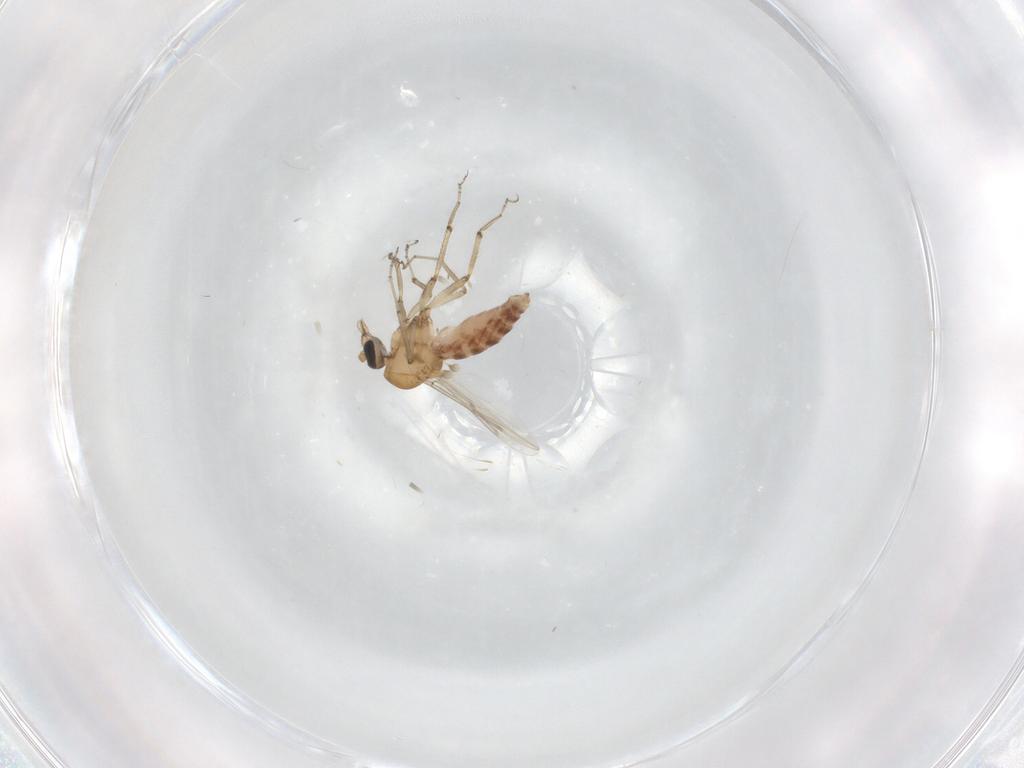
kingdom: Animalia
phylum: Arthropoda
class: Insecta
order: Diptera
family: Ceratopogonidae
